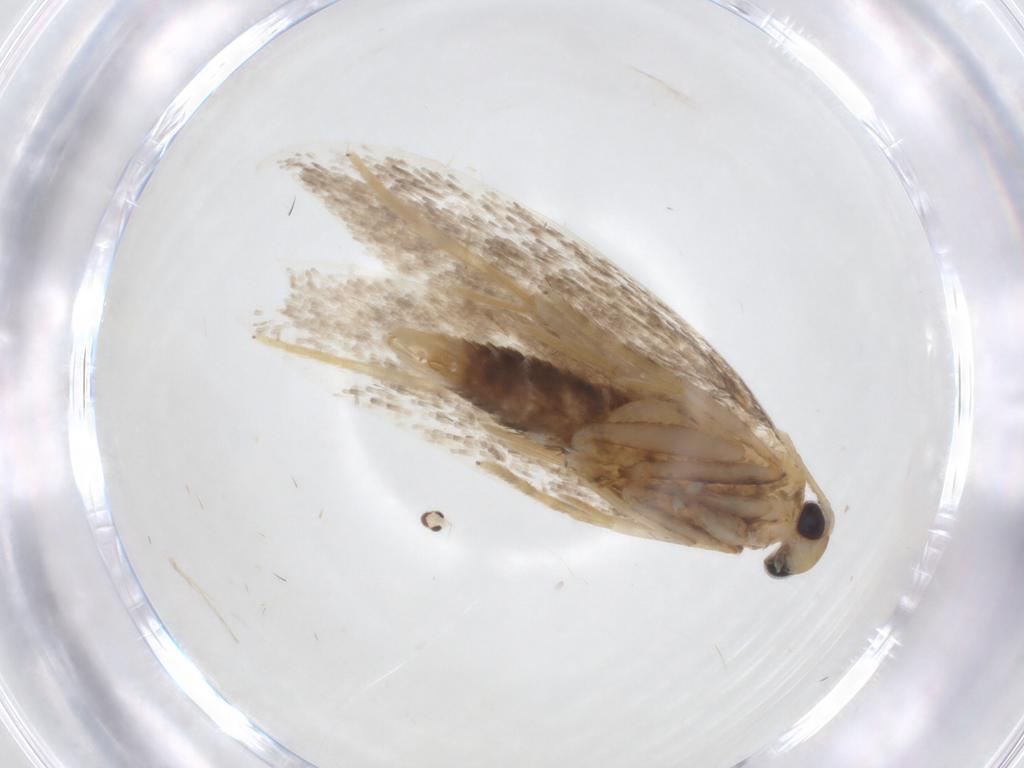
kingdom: Animalia
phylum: Arthropoda
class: Insecta
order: Lepidoptera
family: Autostichidae
